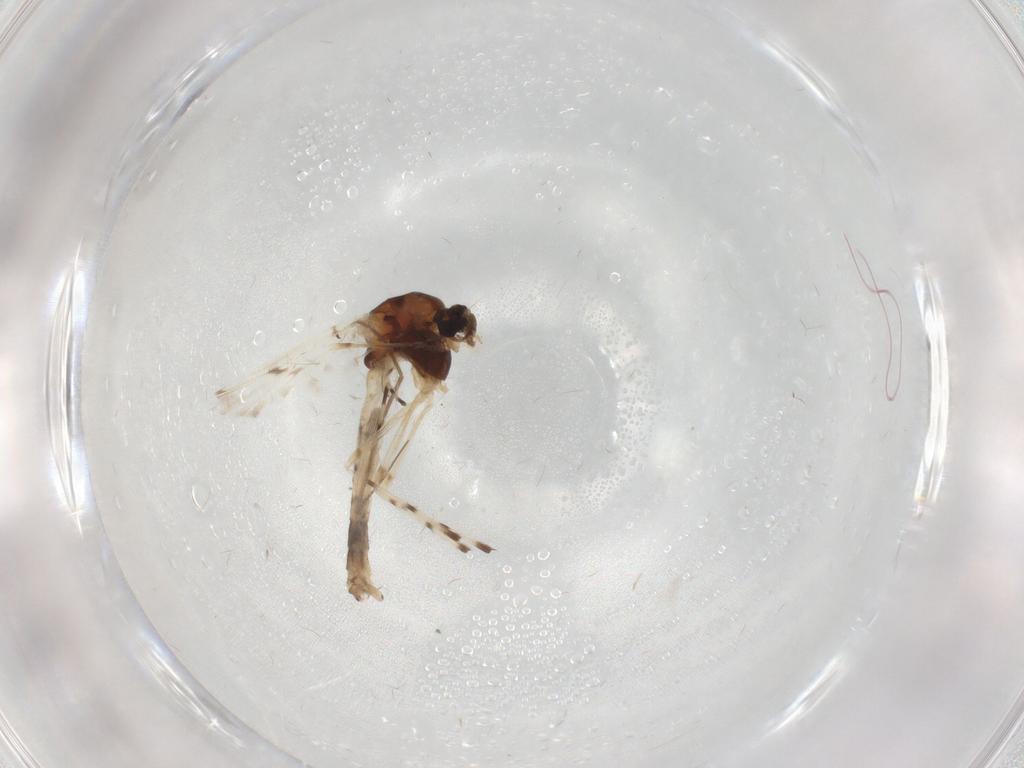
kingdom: Animalia
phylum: Arthropoda
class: Insecta
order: Diptera
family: Chironomidae
